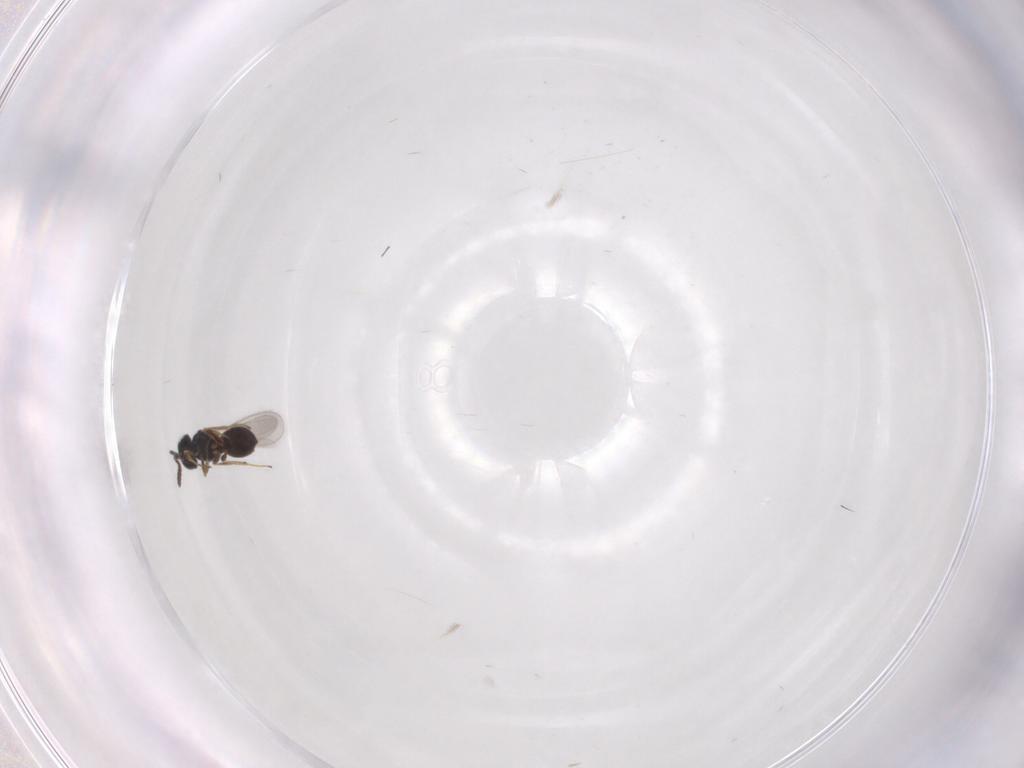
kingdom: Animalia
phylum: Arthropoda
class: Insecta
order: Hymenoptera
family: Scelionidae
